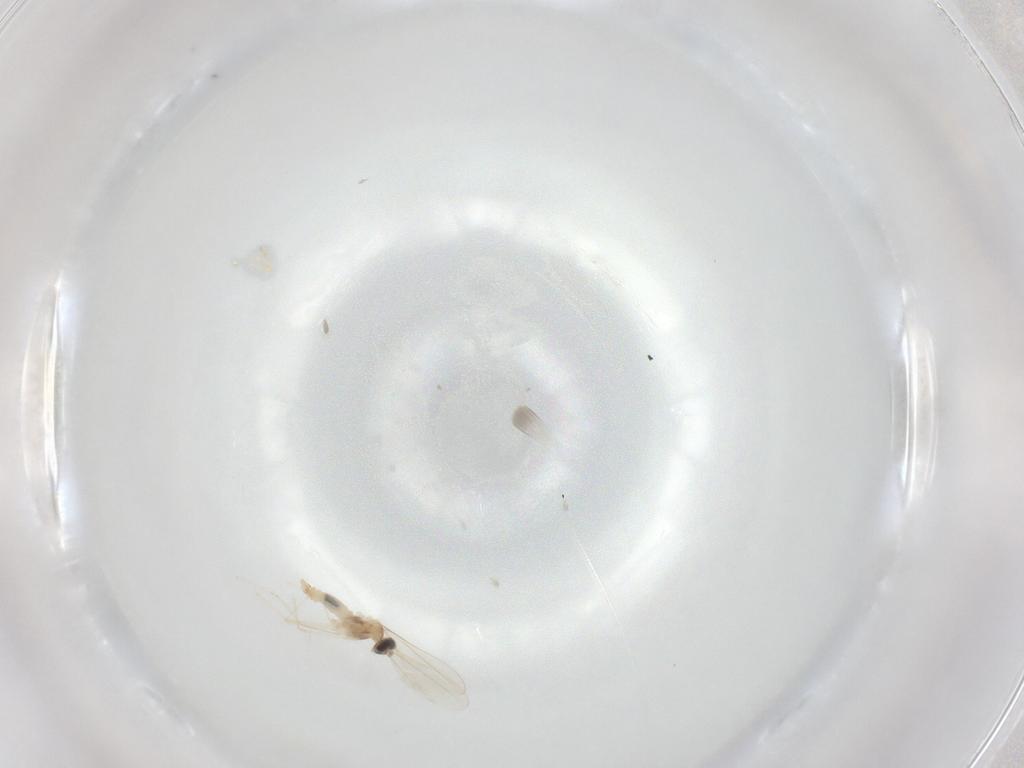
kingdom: Animalia
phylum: Arthropoda
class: Insecta
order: Diptera
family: Cecidomyiidae
